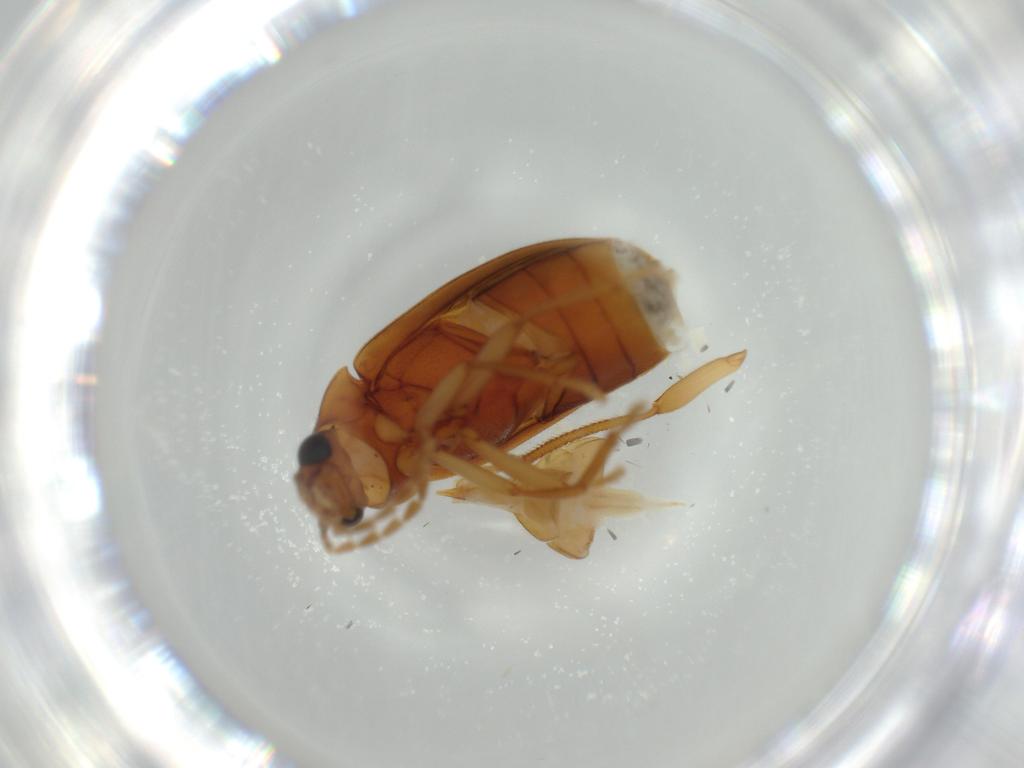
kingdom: Animalia
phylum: Arthropoda
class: Insecta
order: Coleoptera
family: Ptilodactylidae
